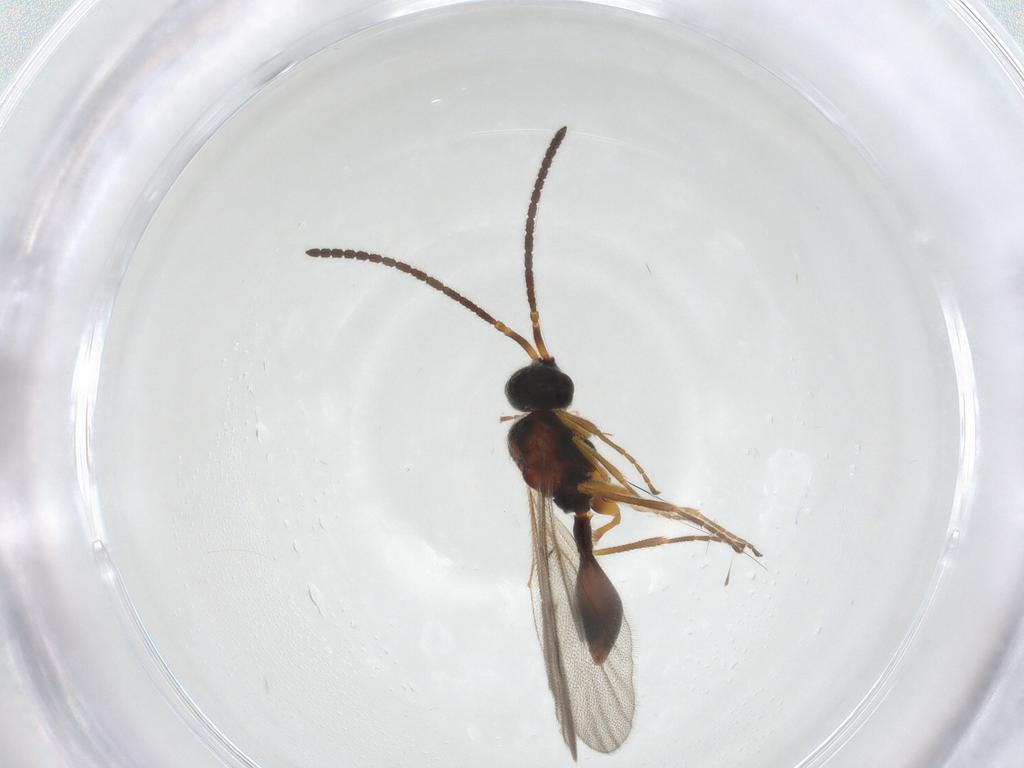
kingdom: Animalia
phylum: Arthropoda
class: Insecta
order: Hymenoptera
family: Diapriidae
